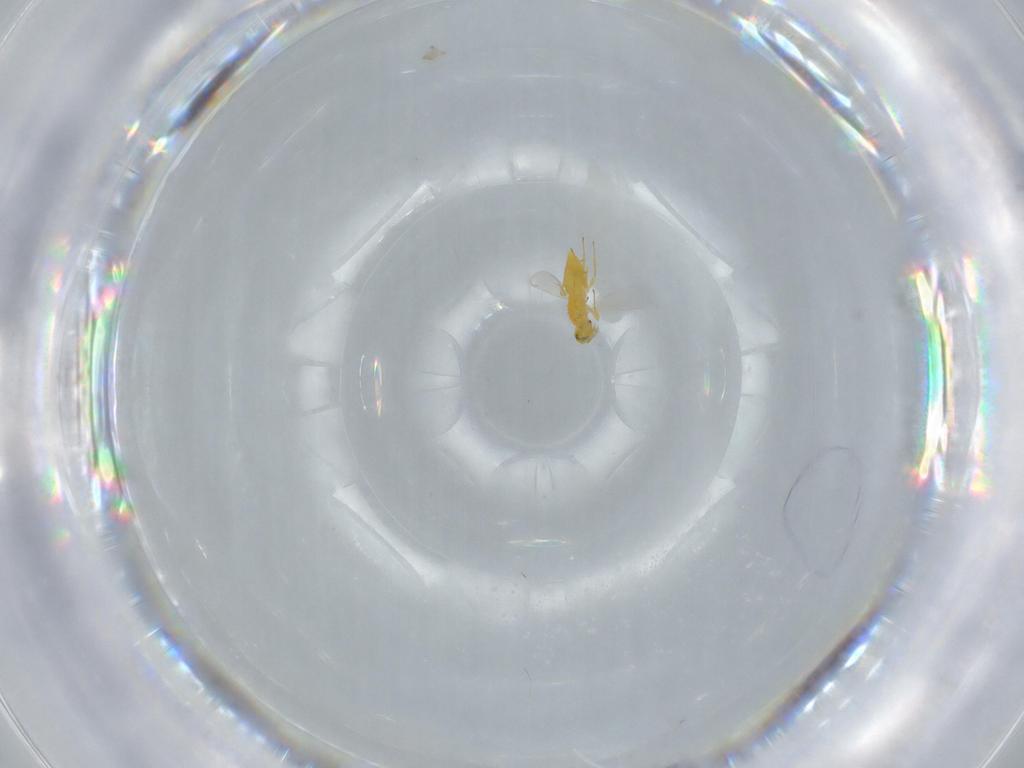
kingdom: Animalia
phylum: Arthropoda
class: Insecta
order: Hymenoptera
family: Aphelinidae
